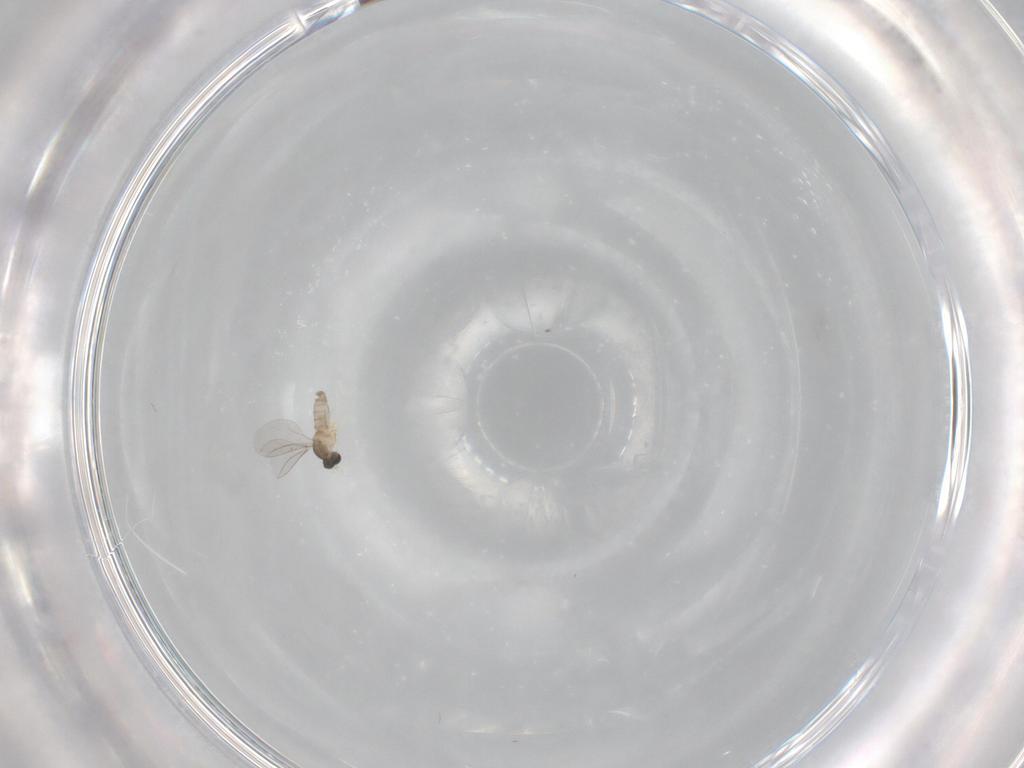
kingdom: Animalia
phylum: Arthropoda
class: Insecta
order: Diptera
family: Cecidomyiidae
